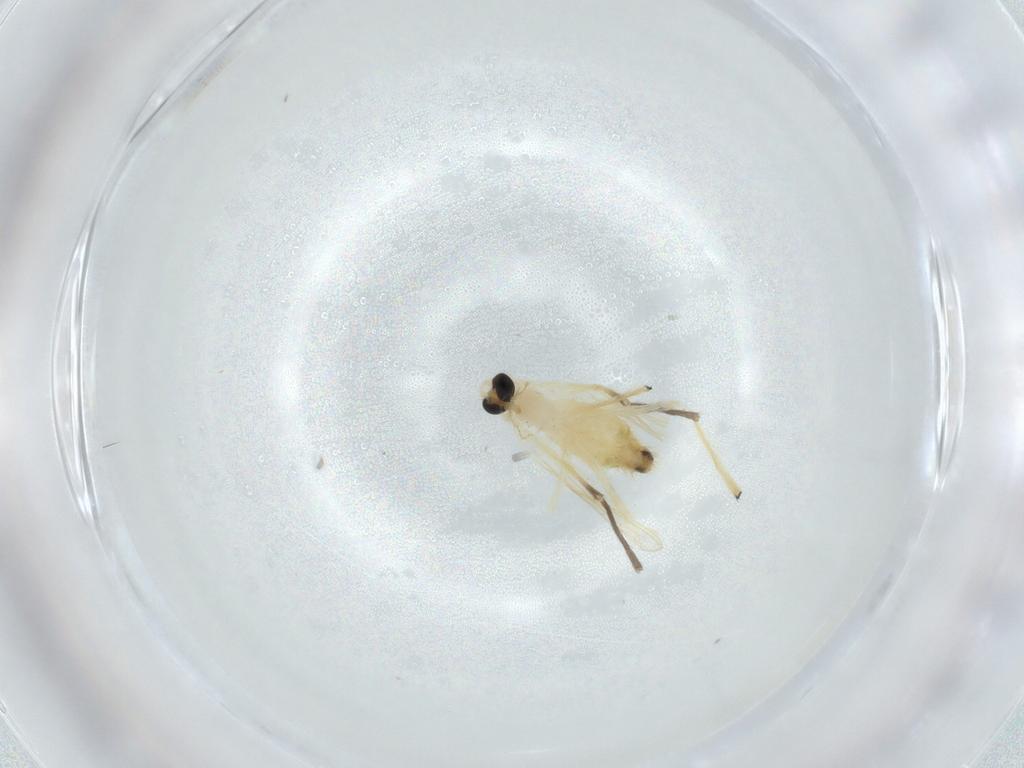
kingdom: Animalia
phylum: Arthropoda
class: Insecta
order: Diptera
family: Chironomidae
